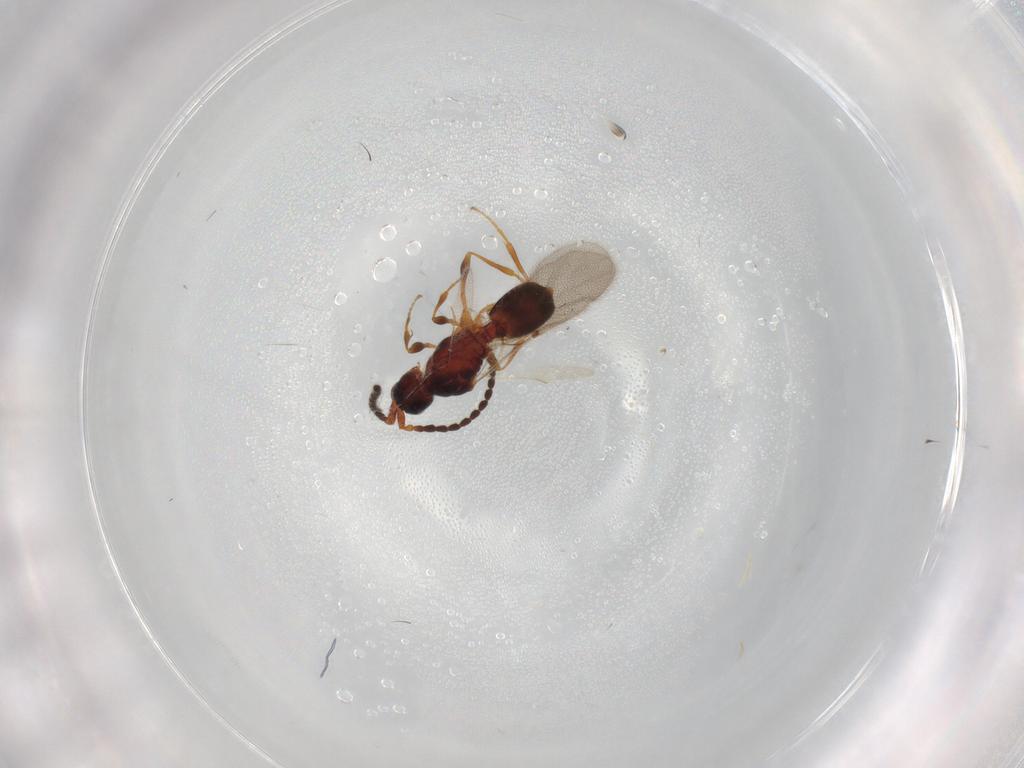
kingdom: Animalia
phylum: Arthropoda
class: Insecta
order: Hymenoptera
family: Diapriidae
